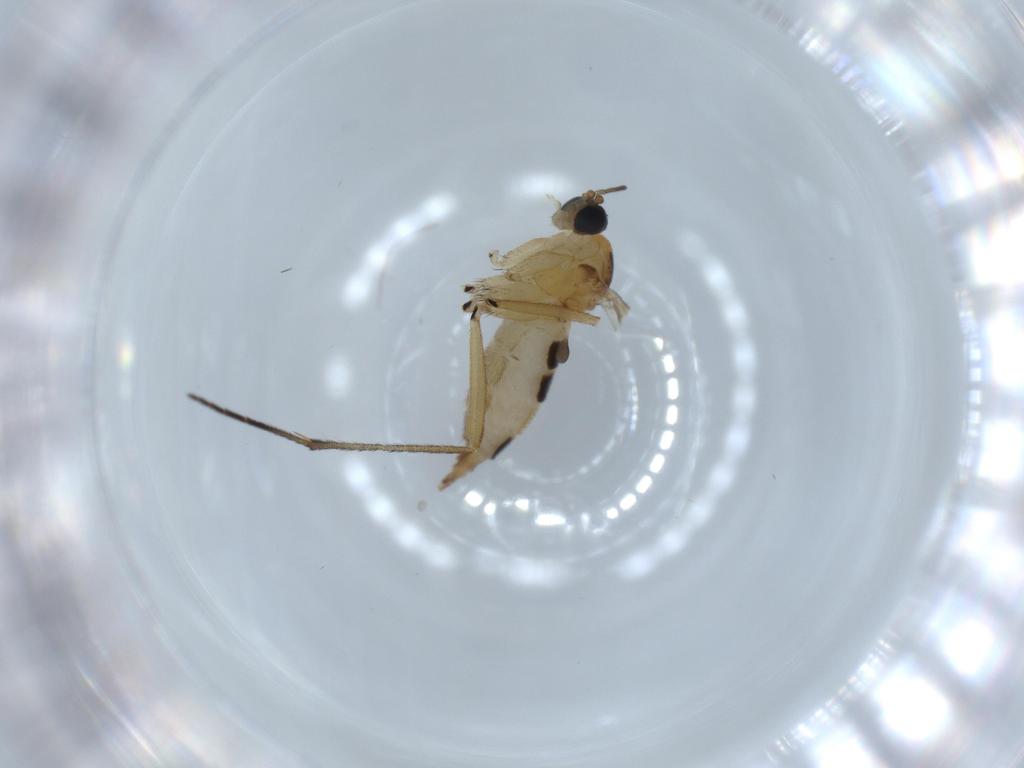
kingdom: Animalia
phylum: Arthropoda
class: Insecta
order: Diptera
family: Sciaridae
